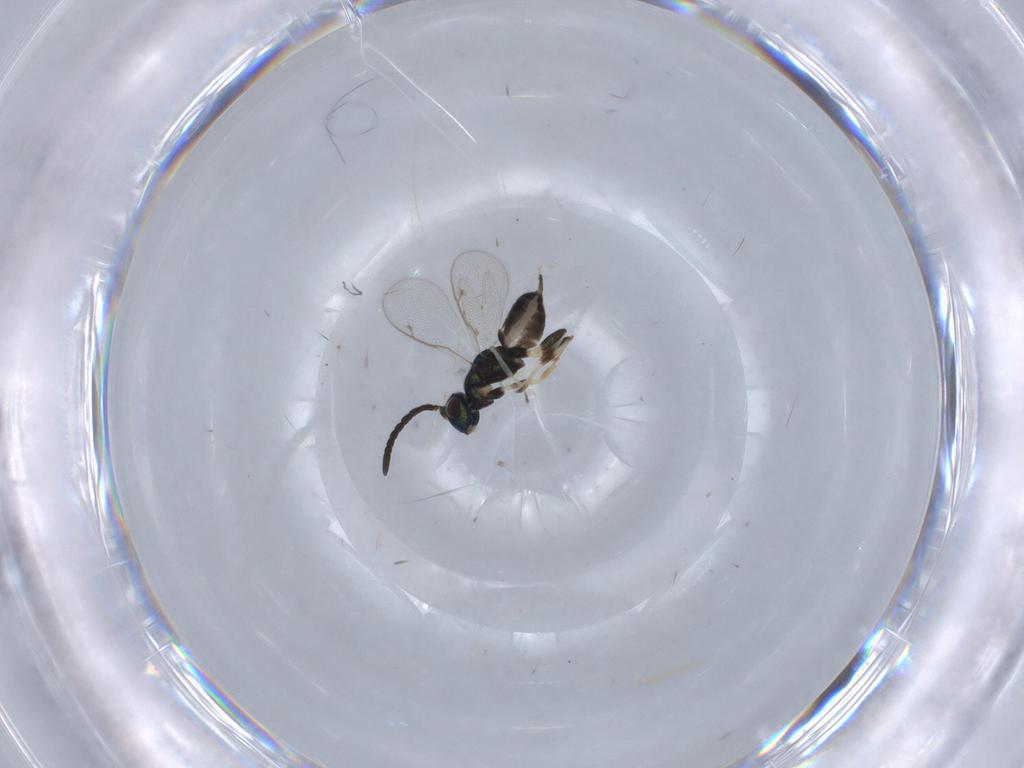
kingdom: Animalia
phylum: Arthropoda
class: Insecta
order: Hymenoptera
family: Eupelmidae
